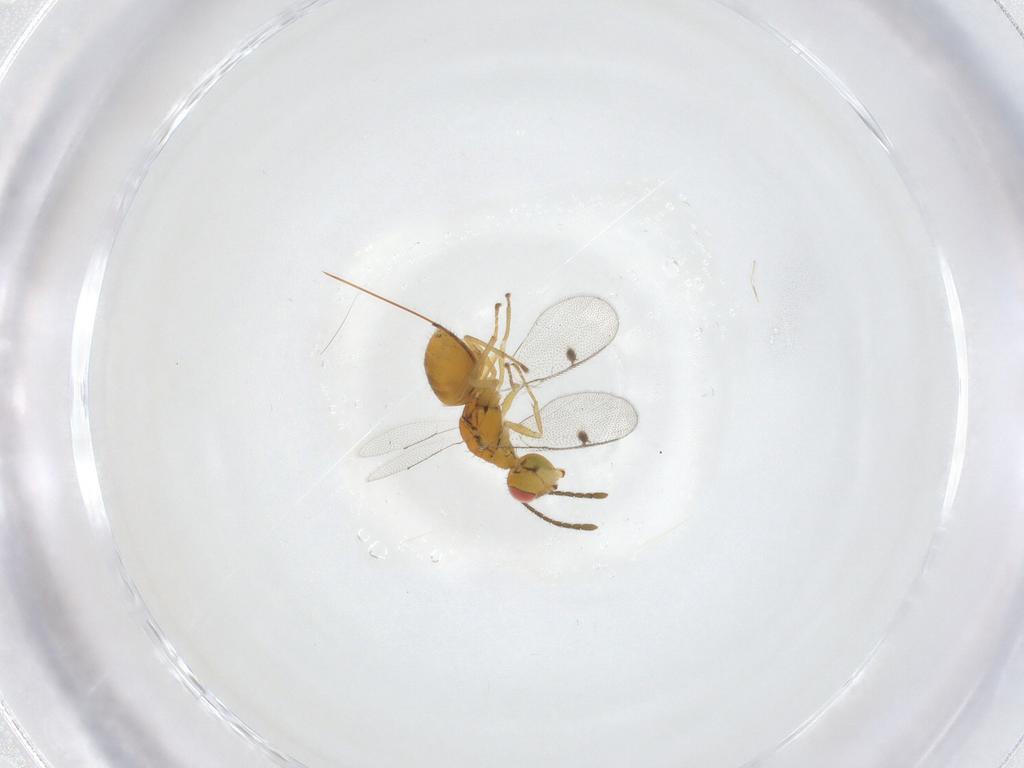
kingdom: Animalia
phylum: Arthropoda
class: Insecta
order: Hymenoptera
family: Megastigmidae
